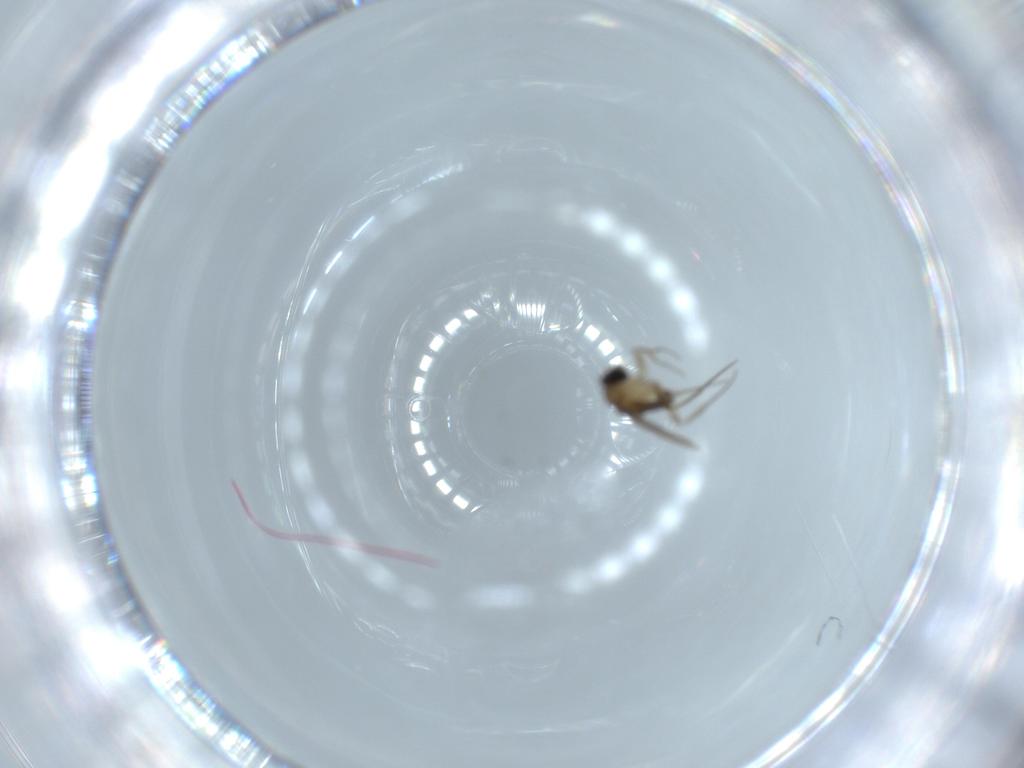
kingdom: Animalia
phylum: Arthropoda
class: Insecta
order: Diptera
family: Phoridae
